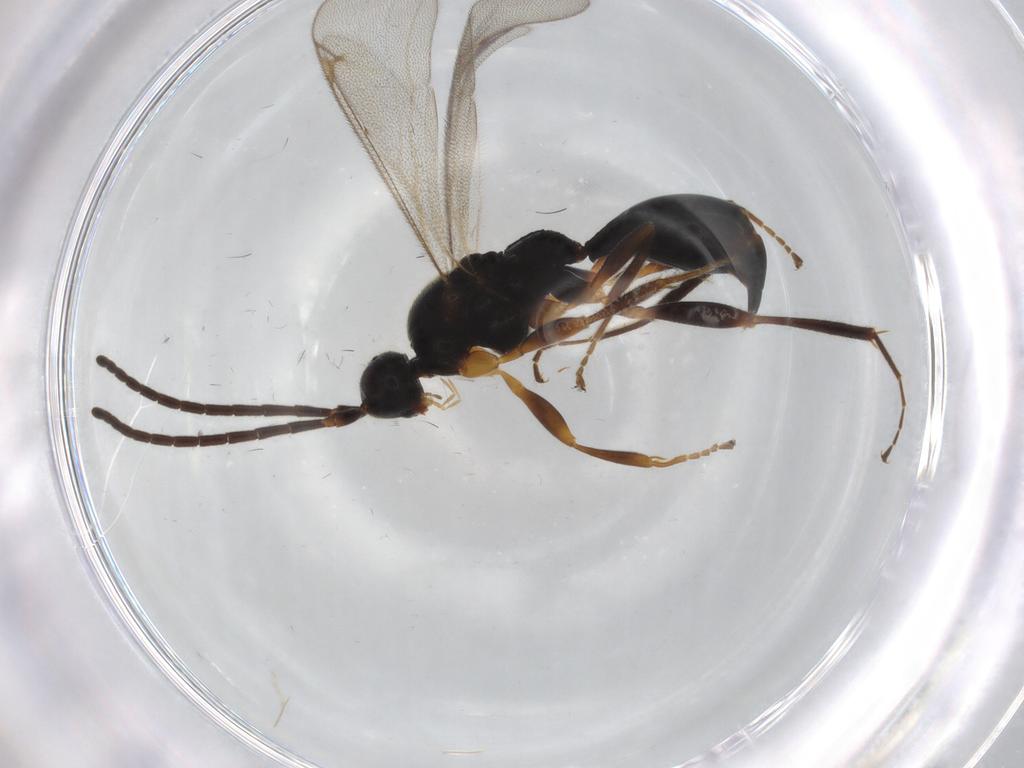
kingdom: Animalia
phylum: Arthropoda
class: Insecta
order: Hymenoptera
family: Proctotrupidae
